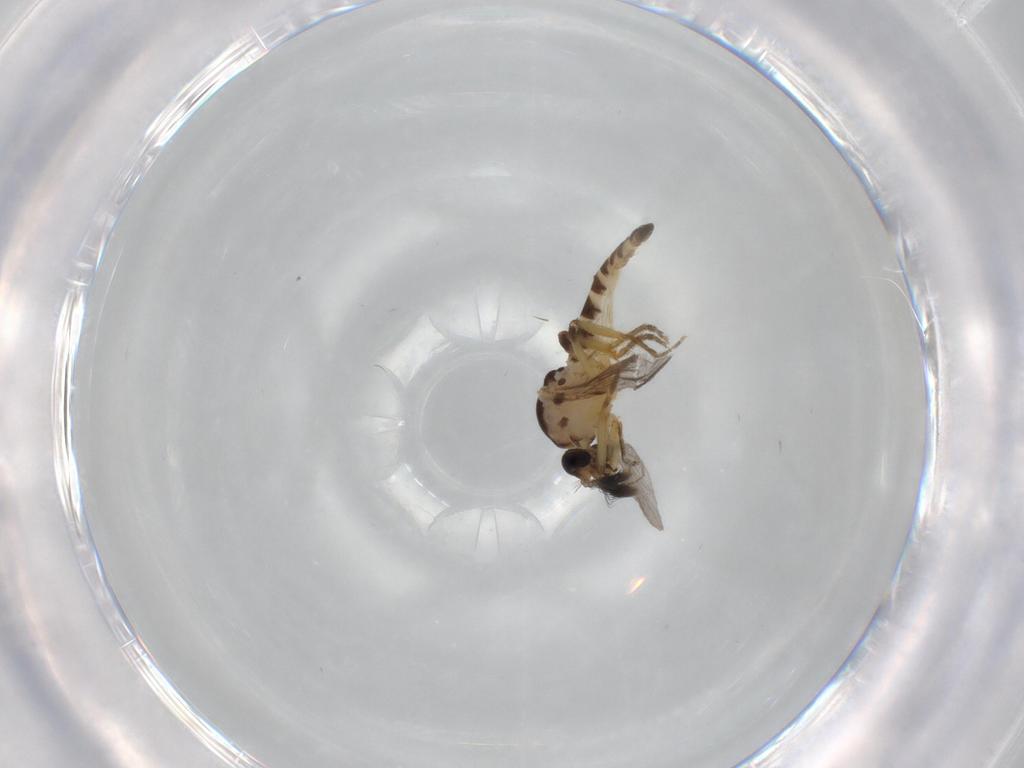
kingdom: Animalia
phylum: Arthropoda
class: Insecta
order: Diptera
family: Ceratopogonidae
